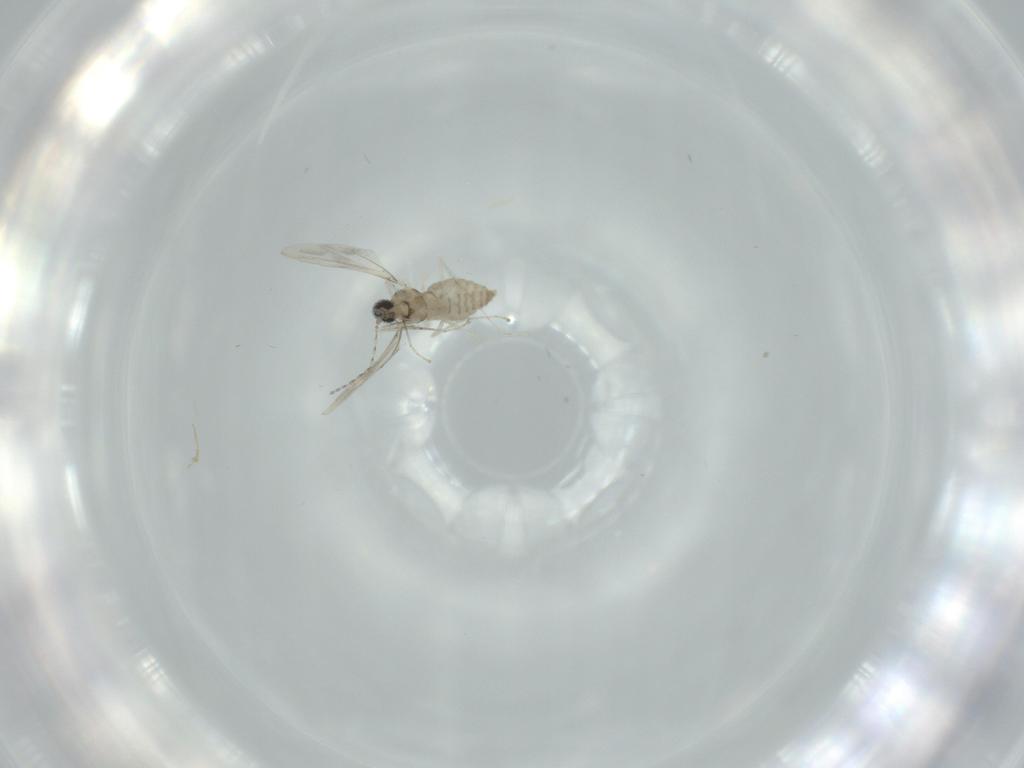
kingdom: Animalia
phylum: Arthropoda
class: Insecta
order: Diptera
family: Cecidomyiidae
